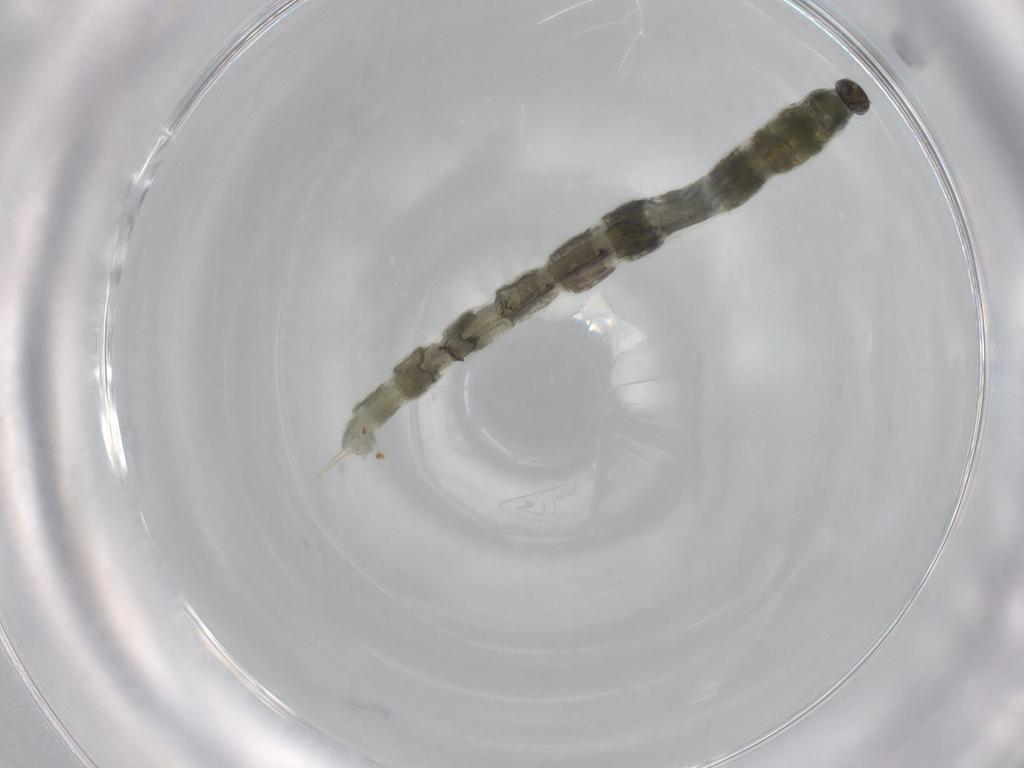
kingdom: Animalia
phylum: Arthropoda
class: Insecta
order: Diptera
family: Chironomidae
